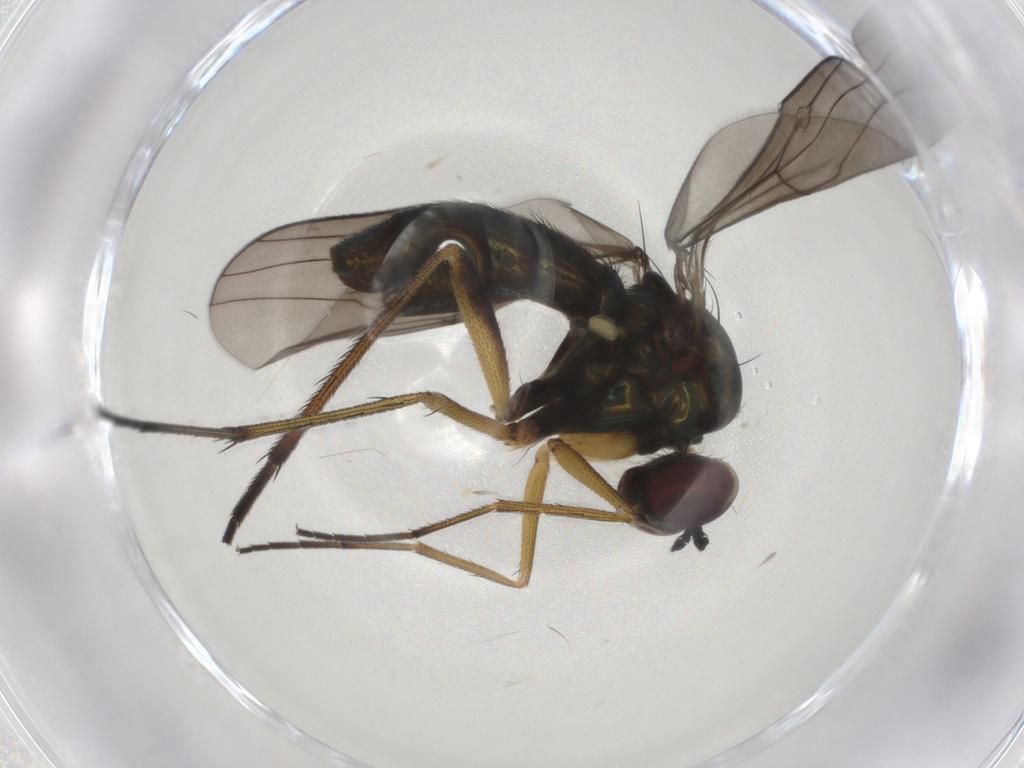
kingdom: Animalia
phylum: Arthropoda
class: Insecta
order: Diptera
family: Dolichopodidae
